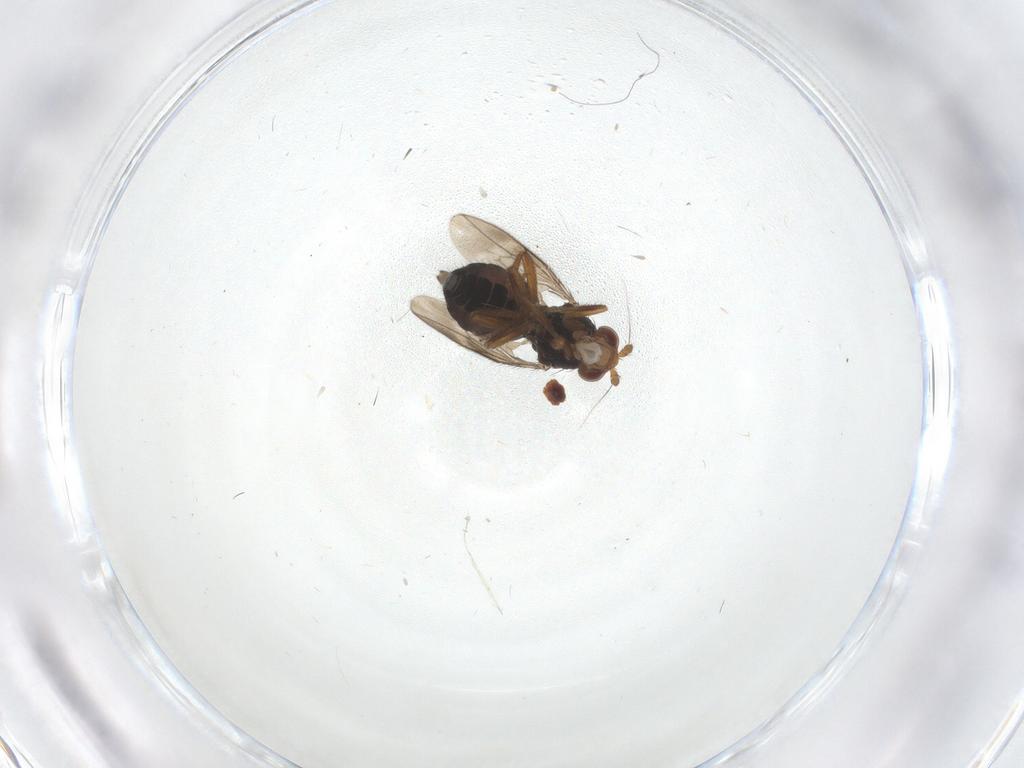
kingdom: Animalia
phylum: Arthropoda
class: Insecta
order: Diptera
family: Sphaeroceridae
